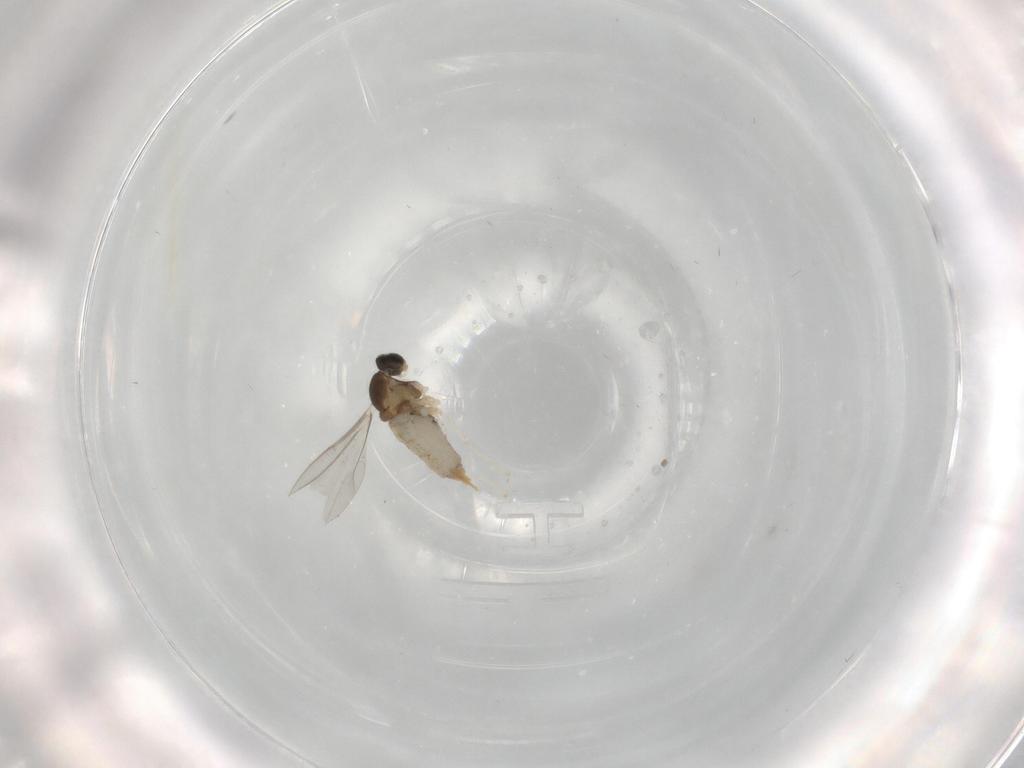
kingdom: Animalia
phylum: Arthropoda
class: Insecta
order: Diptera
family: Cecidomyiidae
